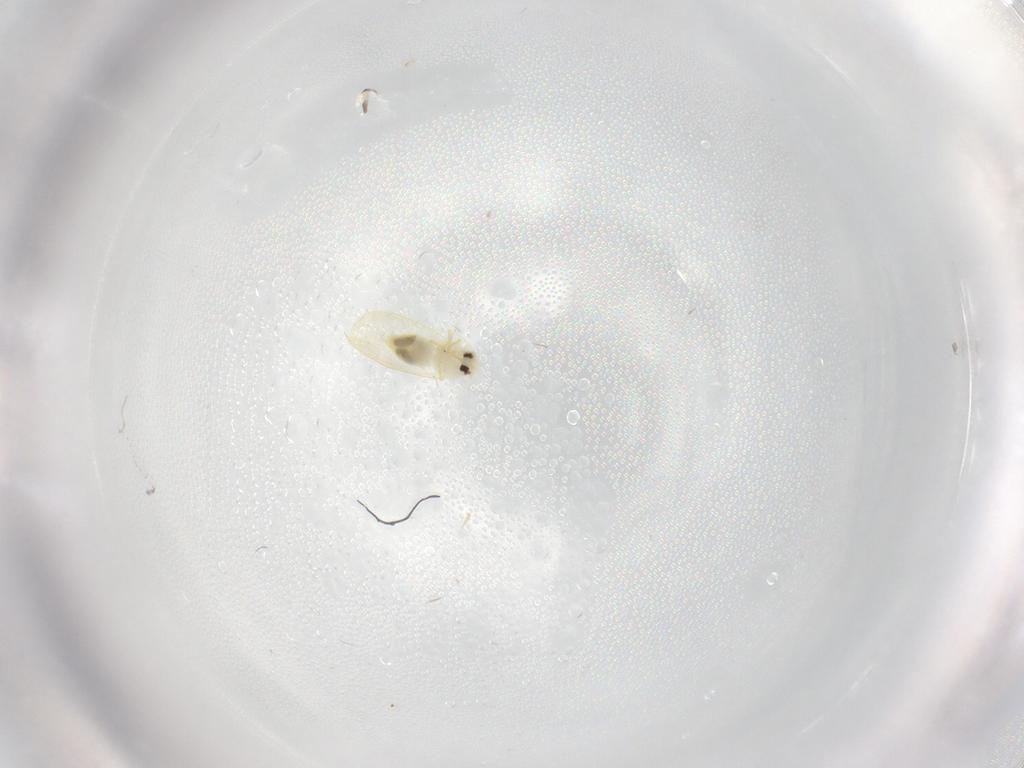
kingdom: Animalia
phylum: Arthropoda
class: Insecta
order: Hemiptera
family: Aleyrodidae
